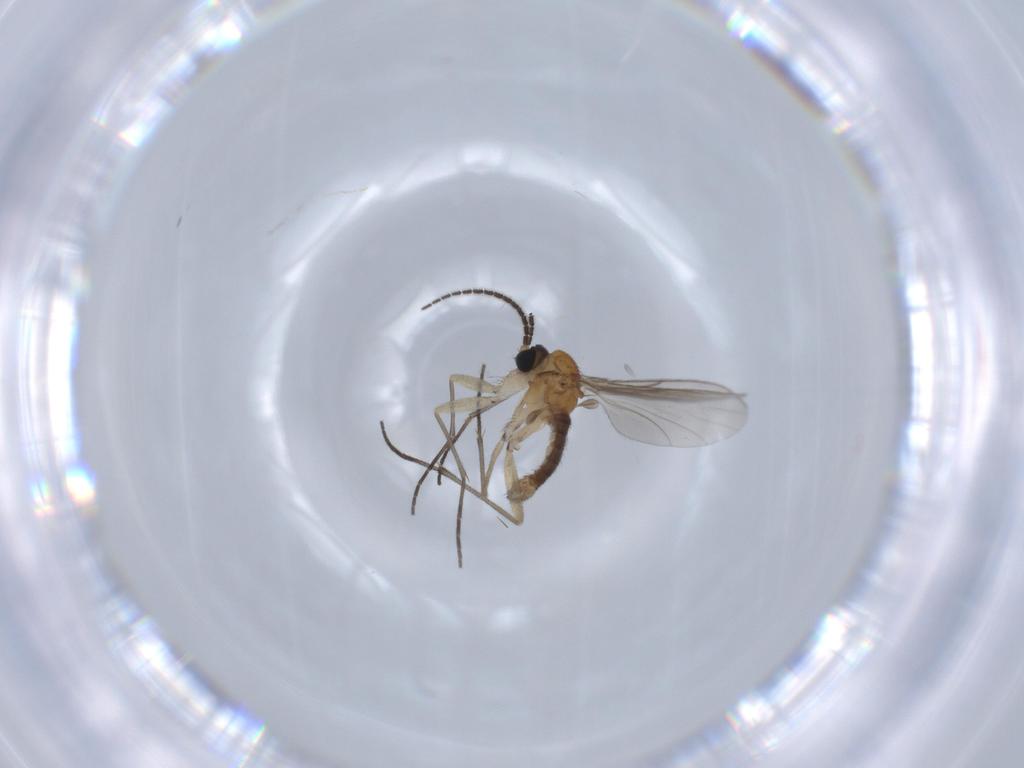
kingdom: Animalia
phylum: Arthropoda
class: Insecta
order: Diptera
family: Sciaridae
